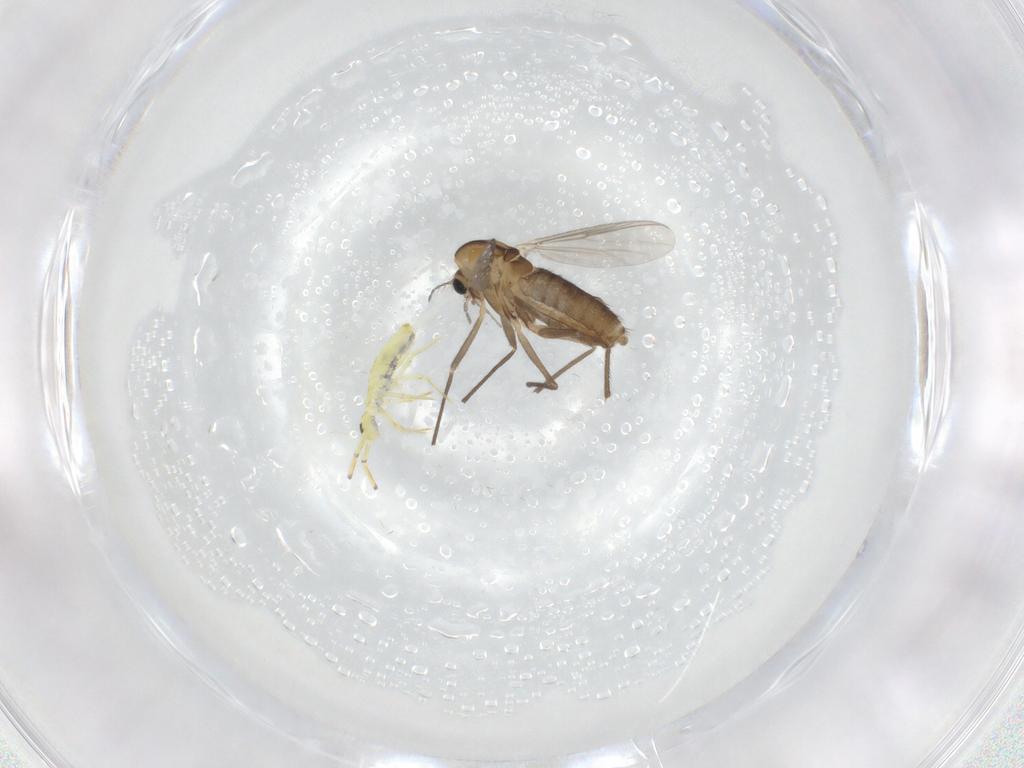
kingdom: Animalia
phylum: Arthropoda
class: Insecta
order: Diptera
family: Chironomidae
